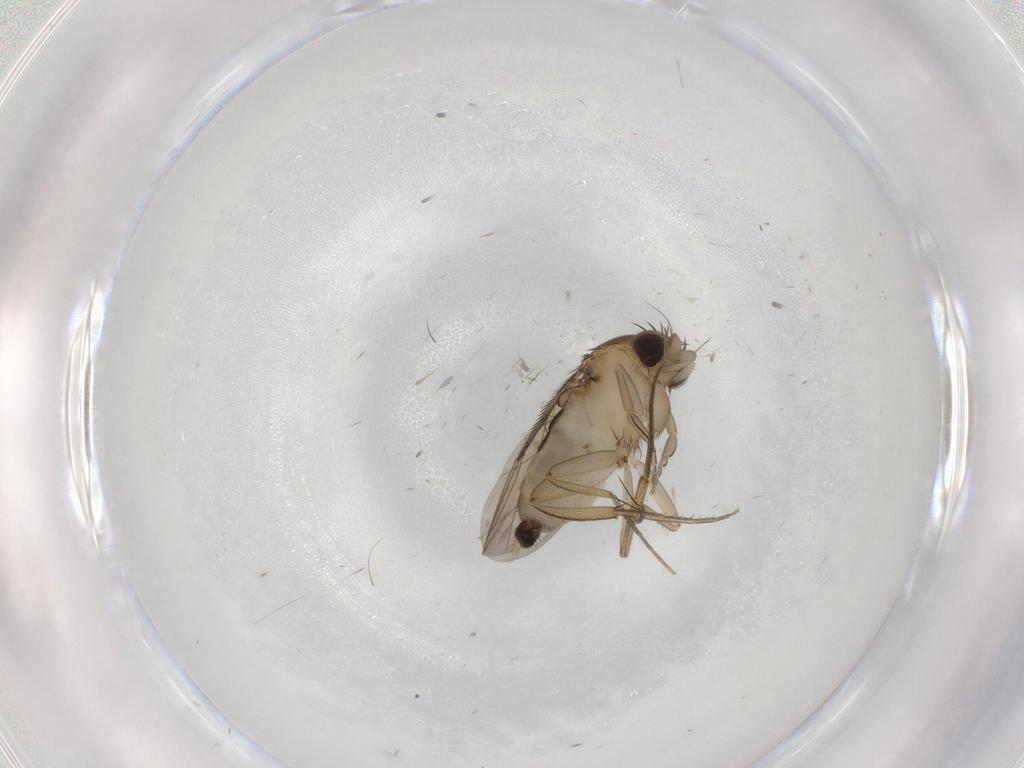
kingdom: Animalia
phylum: Arthropoda
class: Insecta
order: Diptera
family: Phoridae
